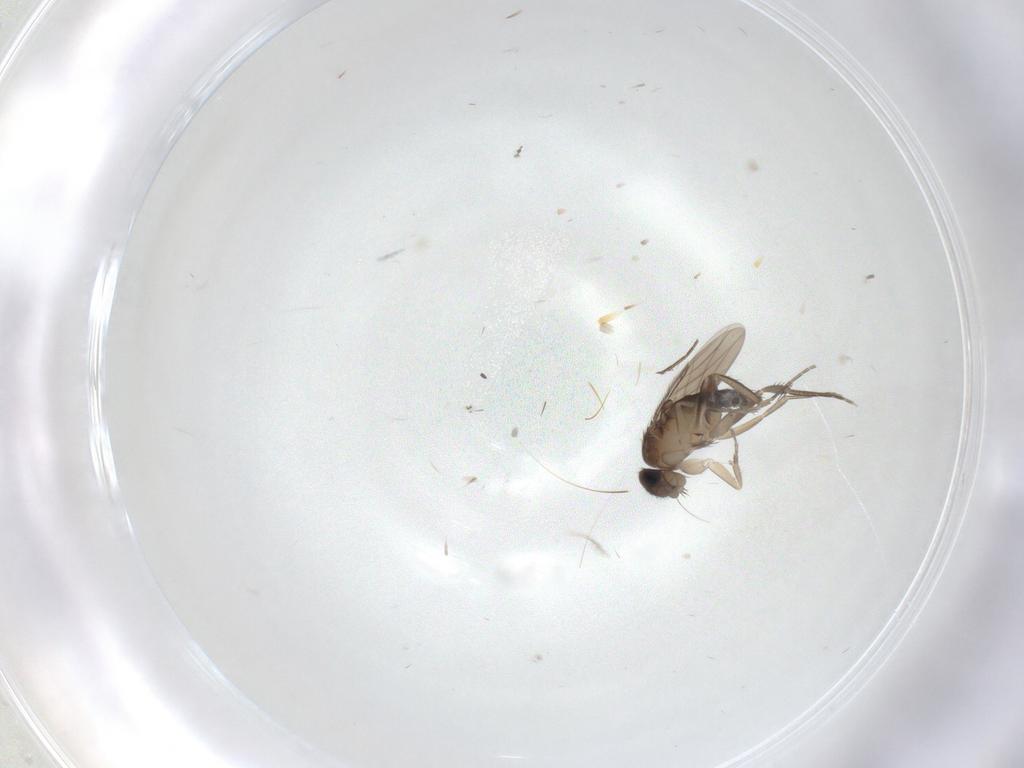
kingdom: Animalia
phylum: Arthropoda
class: Insecta
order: Diptera
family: Phoridae
